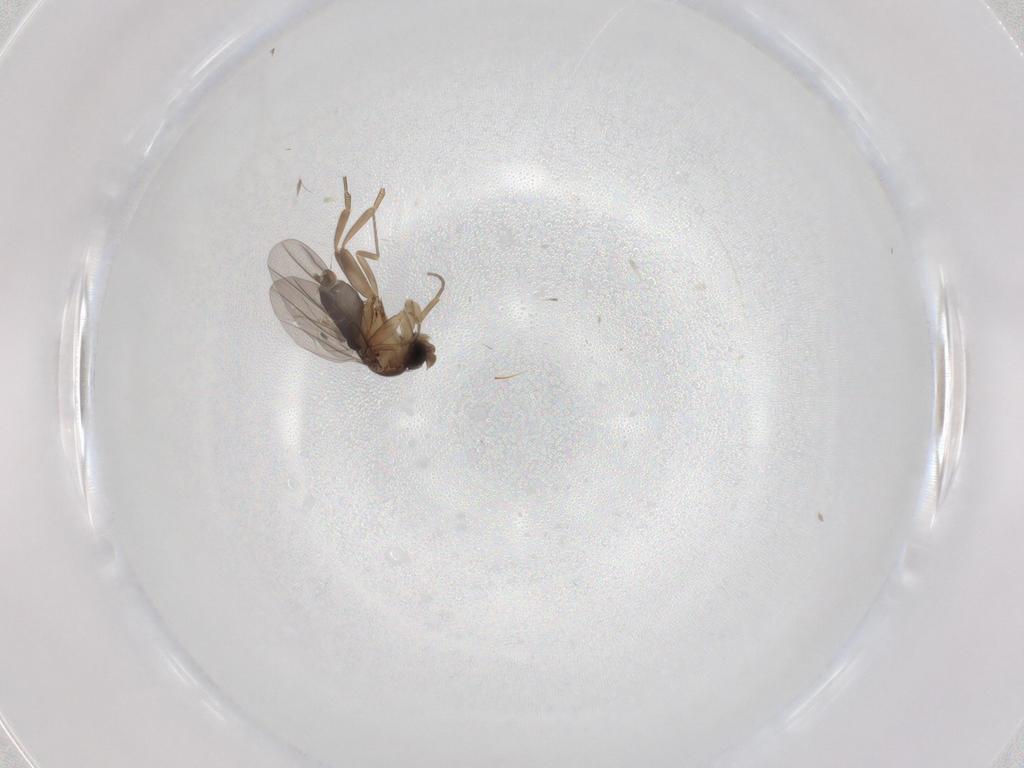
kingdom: Animalia
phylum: Arthropoda
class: Insecta
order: Diptera
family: Phoridae
